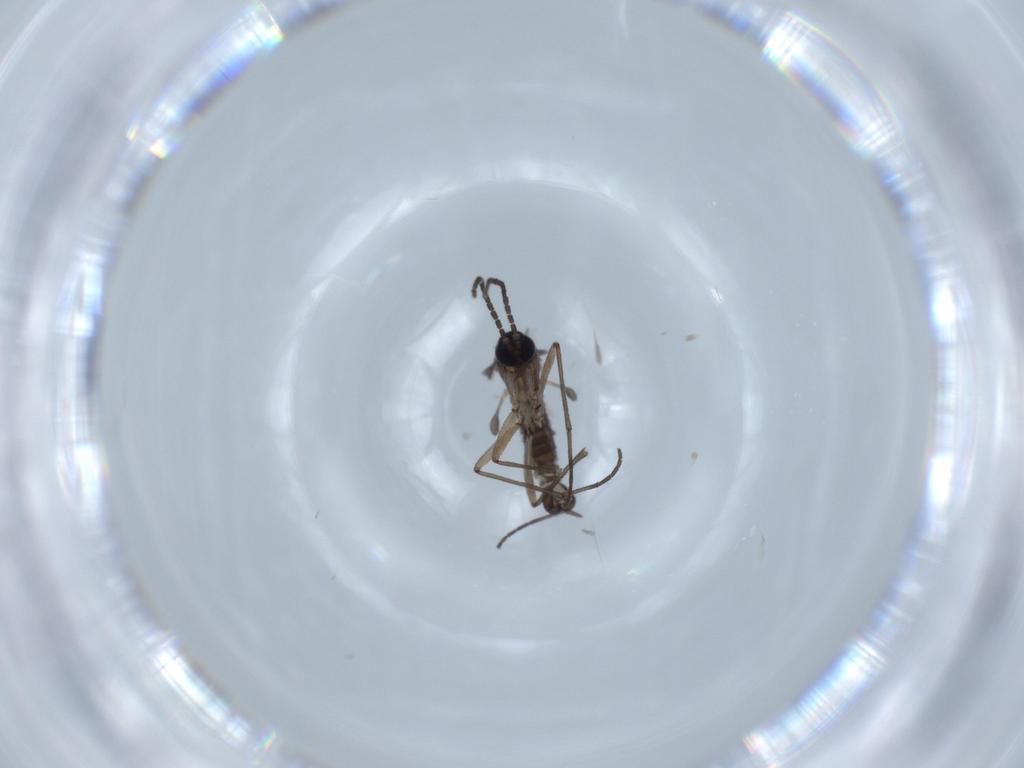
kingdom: Animalia
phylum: Arthropoda
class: Insecta
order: Diptera
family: Sciaridae
